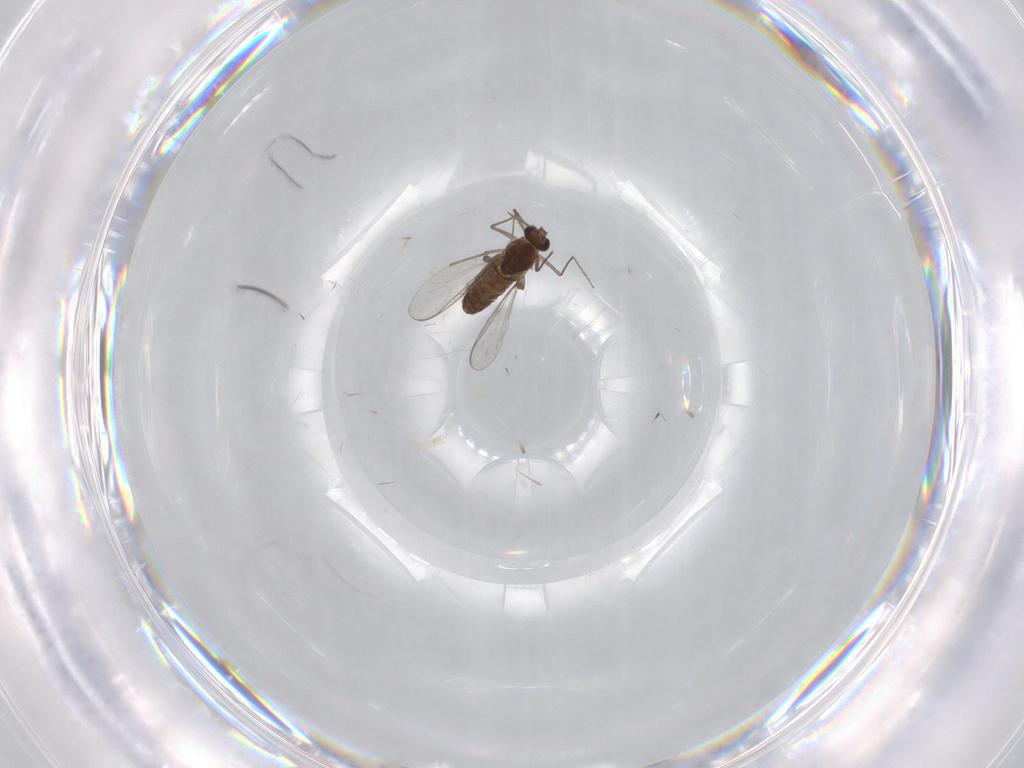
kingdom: Animalia
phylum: Arthropoda
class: Insecta
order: Diptera
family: Chironomidae
